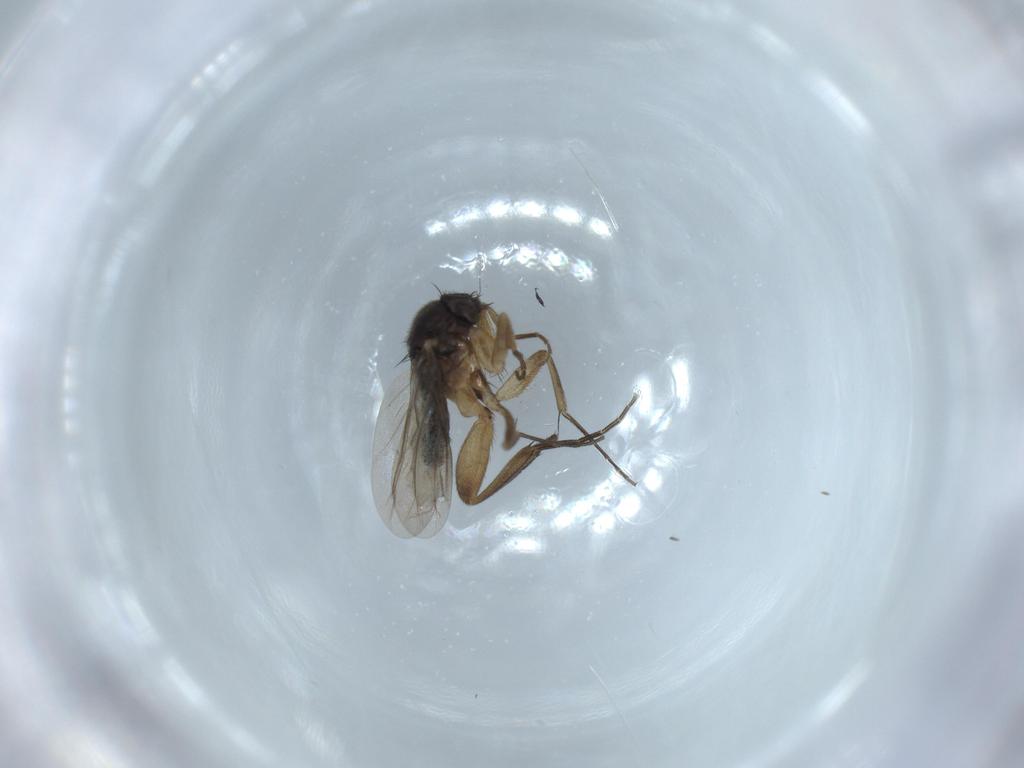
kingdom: Animalia
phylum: Arthropoda
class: Insecta
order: Diptera
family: Phoridae
